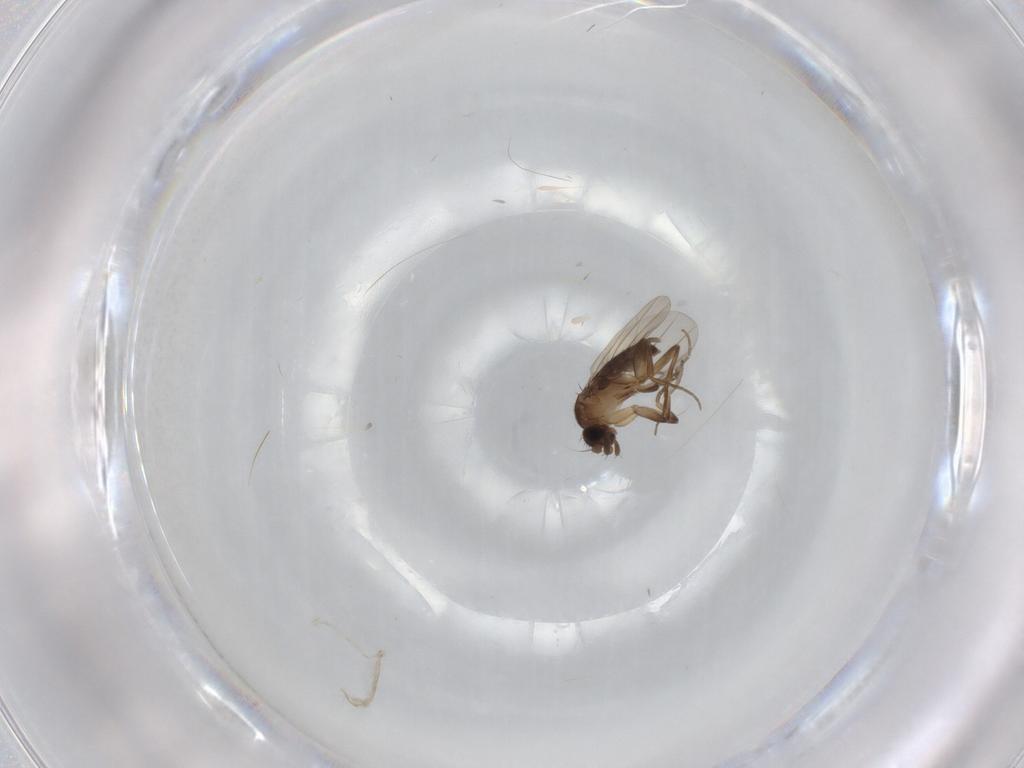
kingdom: Animalia
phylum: Arthropoda
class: Insecta
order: Diptera
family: Phoridae
